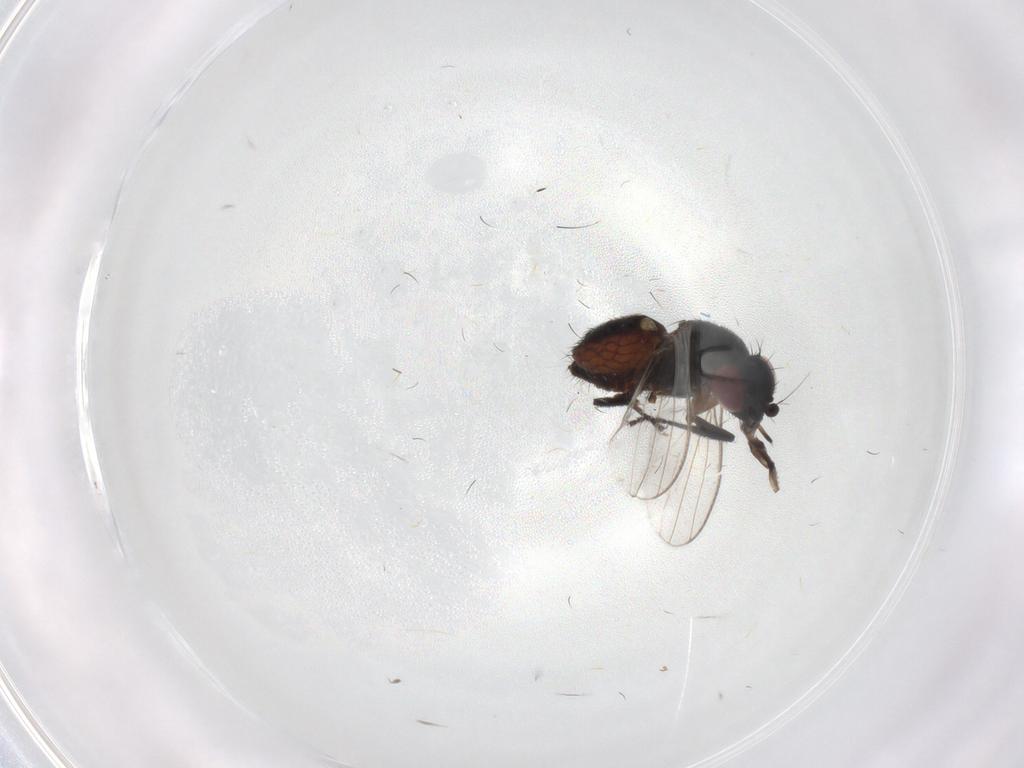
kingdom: Animalia
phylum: Arthropoda
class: Insecta
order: Diptera
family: Milichiidae
